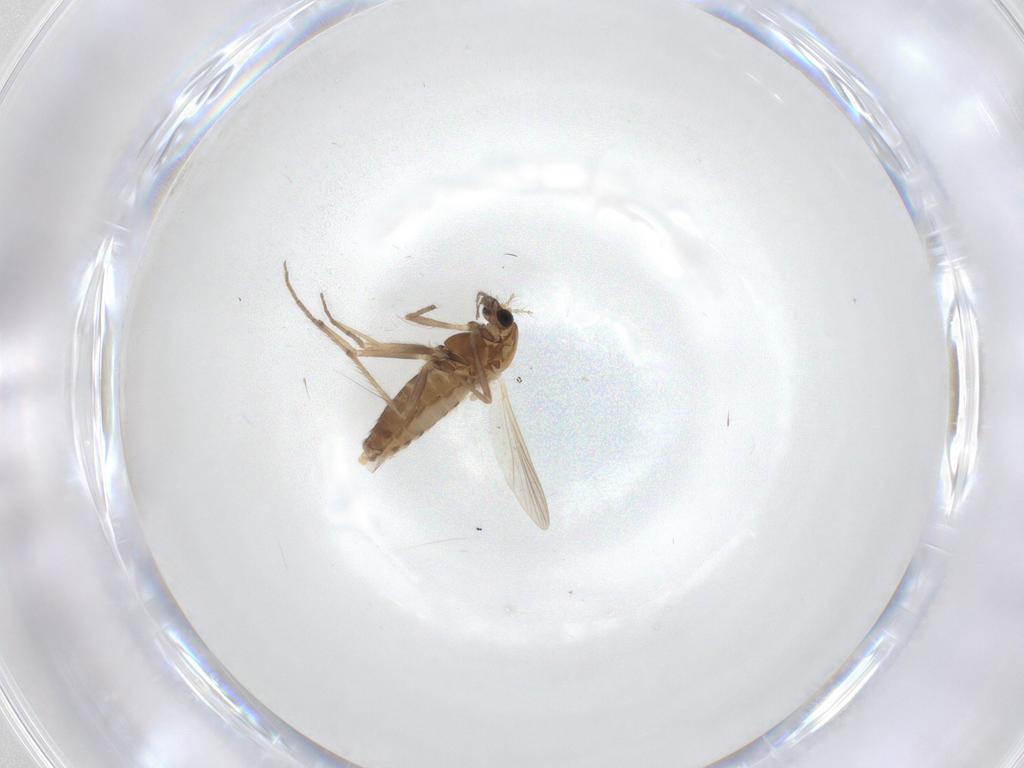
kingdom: Animalia
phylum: Arthropoda
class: Insecta
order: Diptera
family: Chironomidae
